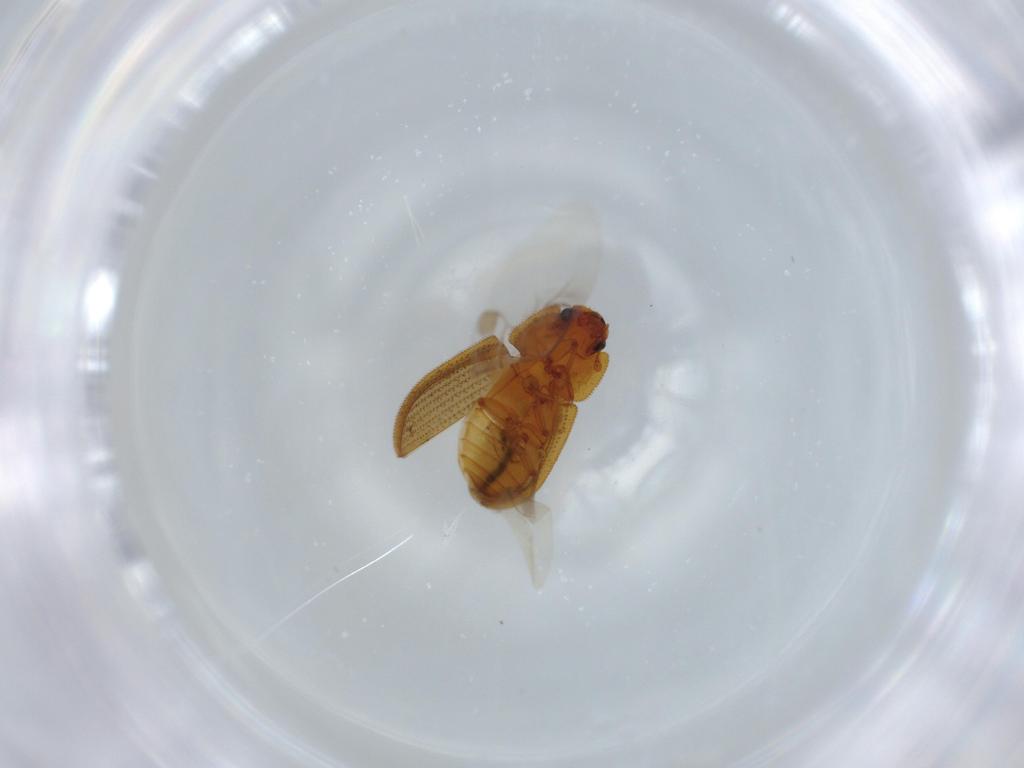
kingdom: Animalia
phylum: Arthropoda
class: Insecta
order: Coleoptera
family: Zopheridae
